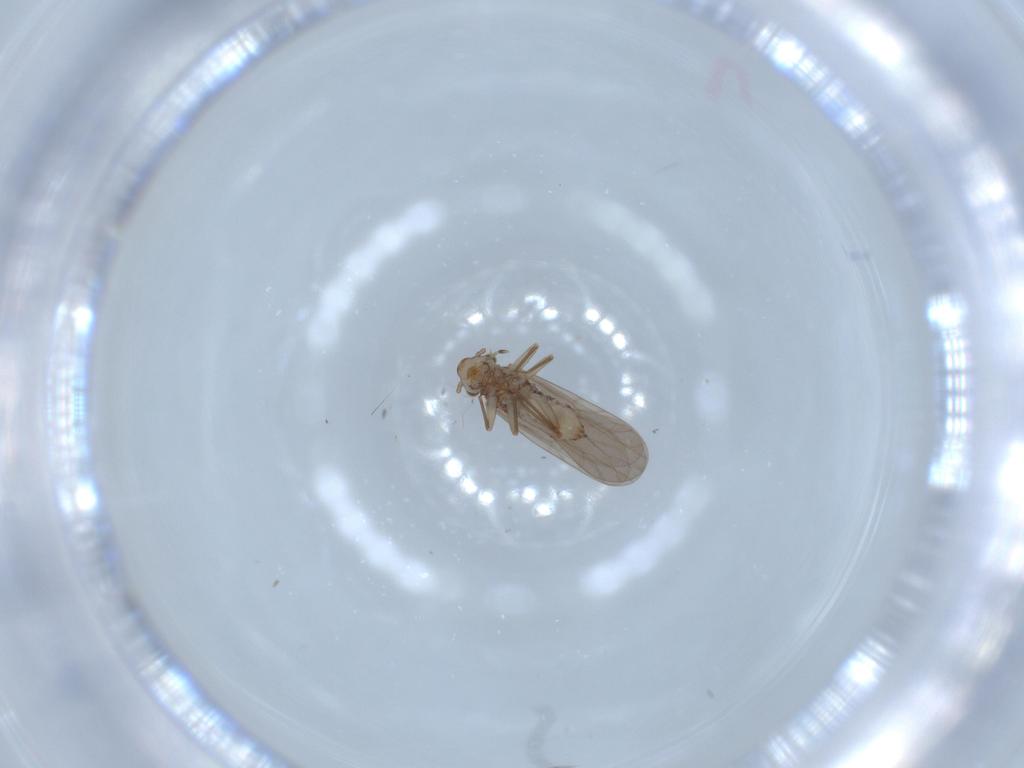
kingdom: Animalia
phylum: Arthropoda
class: Insecta
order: Psocodea
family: Lepidopsocidae
